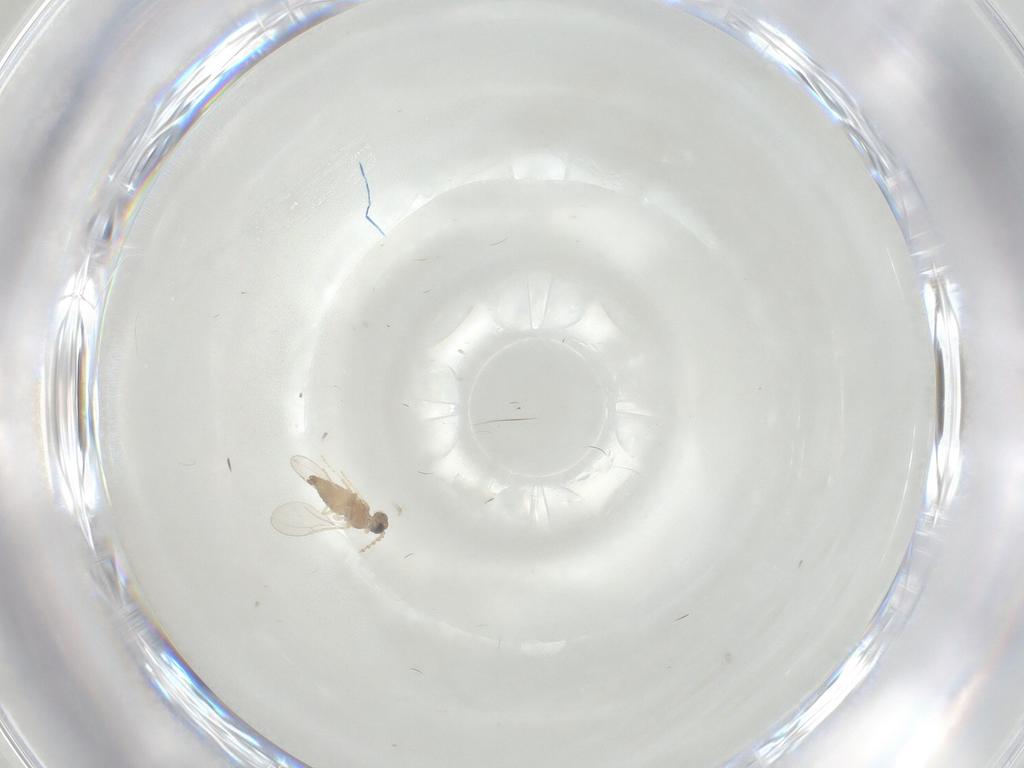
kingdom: Animalia
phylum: Arthropoda
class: Insecta
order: Diptera
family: Cecidomyiidae
